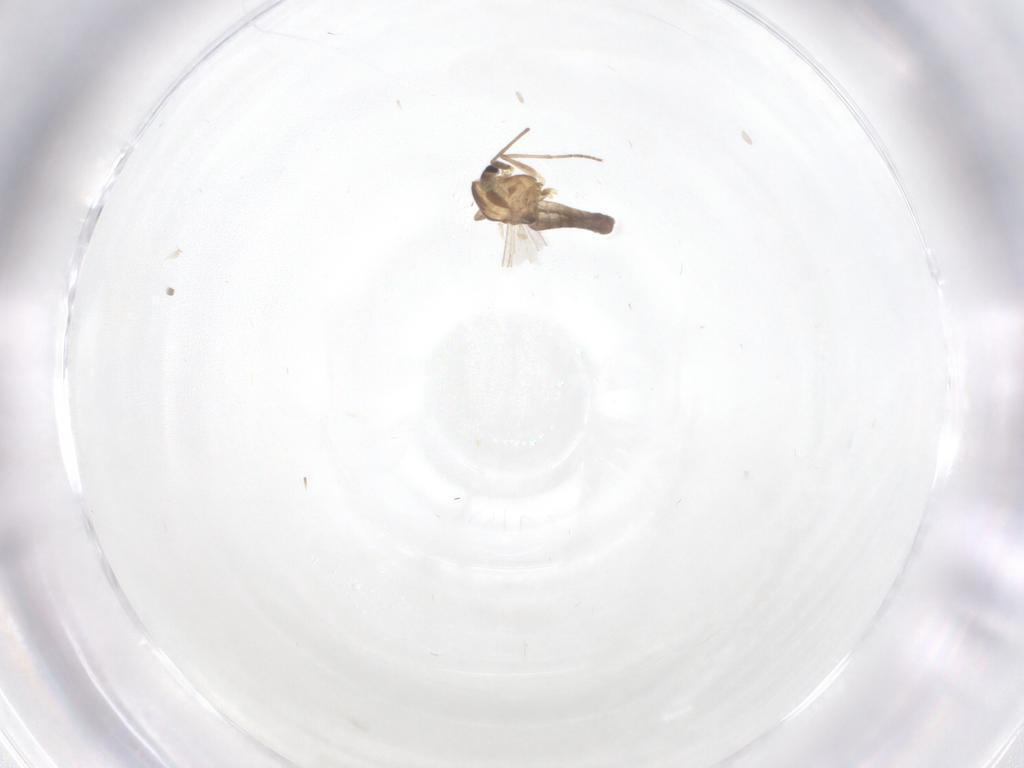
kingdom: Animalia
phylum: Arthropoda
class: Insecta
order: Diptera
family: Chironomidae
